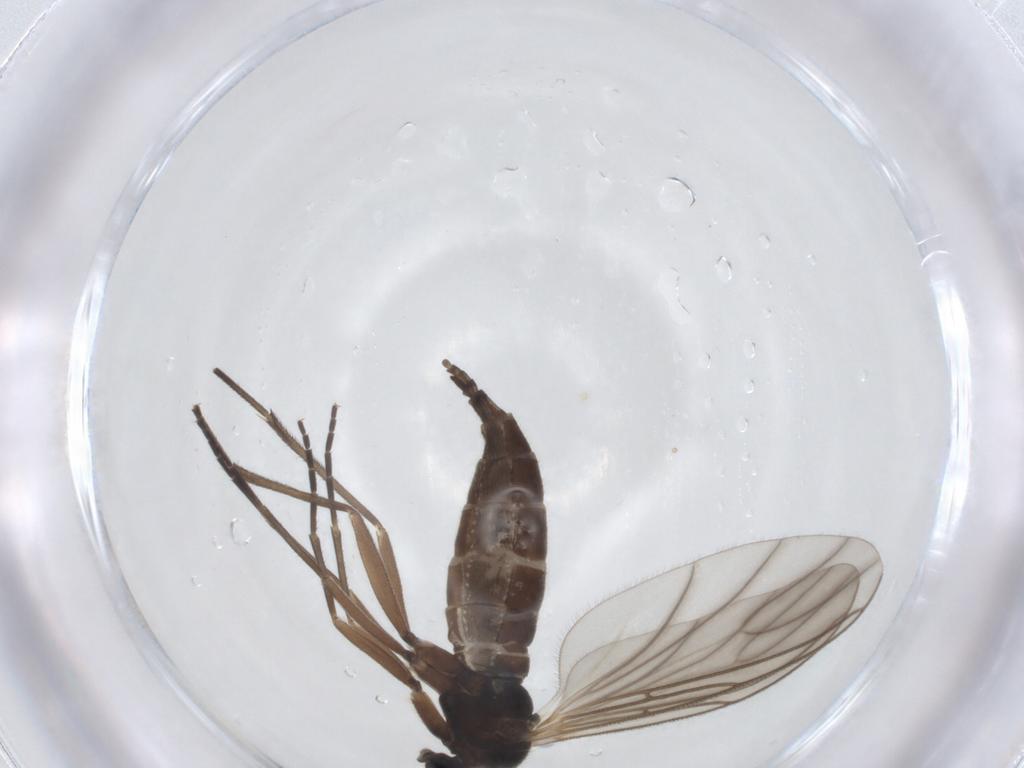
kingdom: Animalia
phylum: Arthropoda
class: Insecta
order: Diptera
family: Sciaridae
